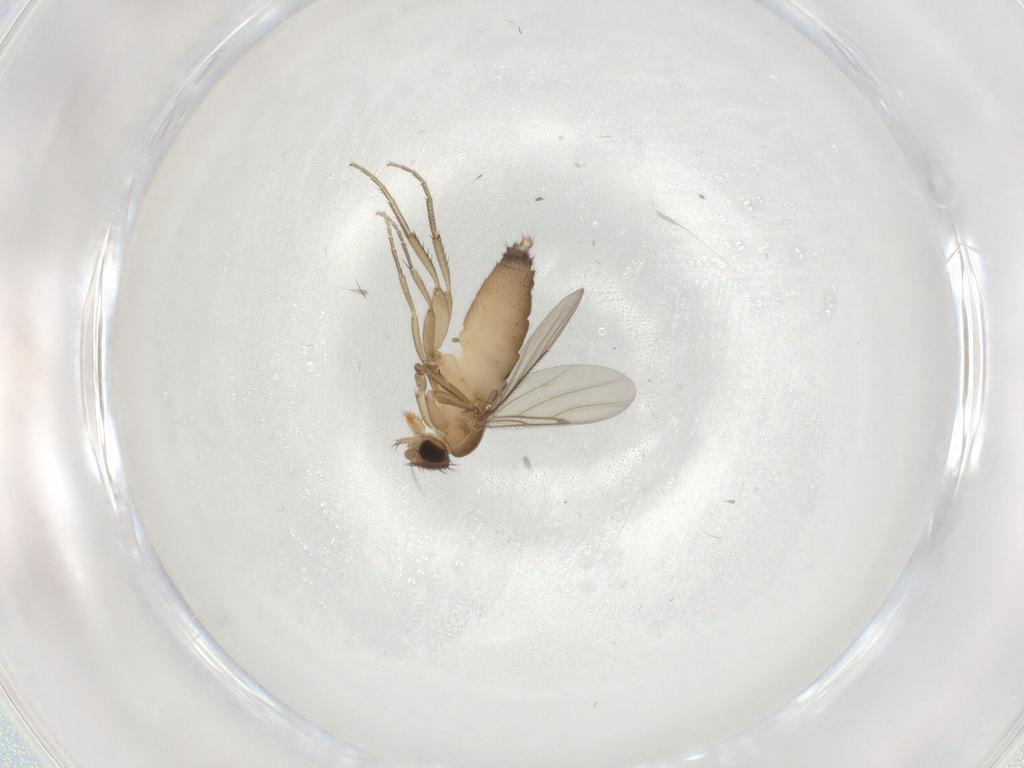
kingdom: Animalia
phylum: Arthropoda
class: Insecta
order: Diptera
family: Phoridae
